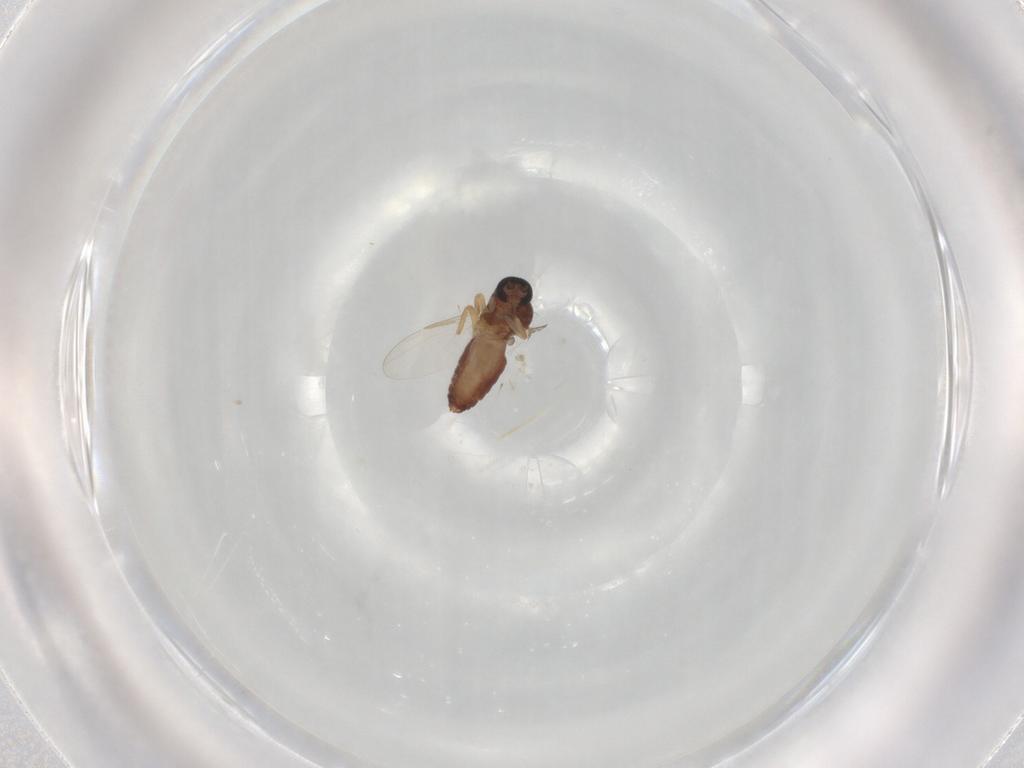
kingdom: Animalia
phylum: Arthropoda
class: Insecta
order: Diptera
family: Ceratopogonidae
